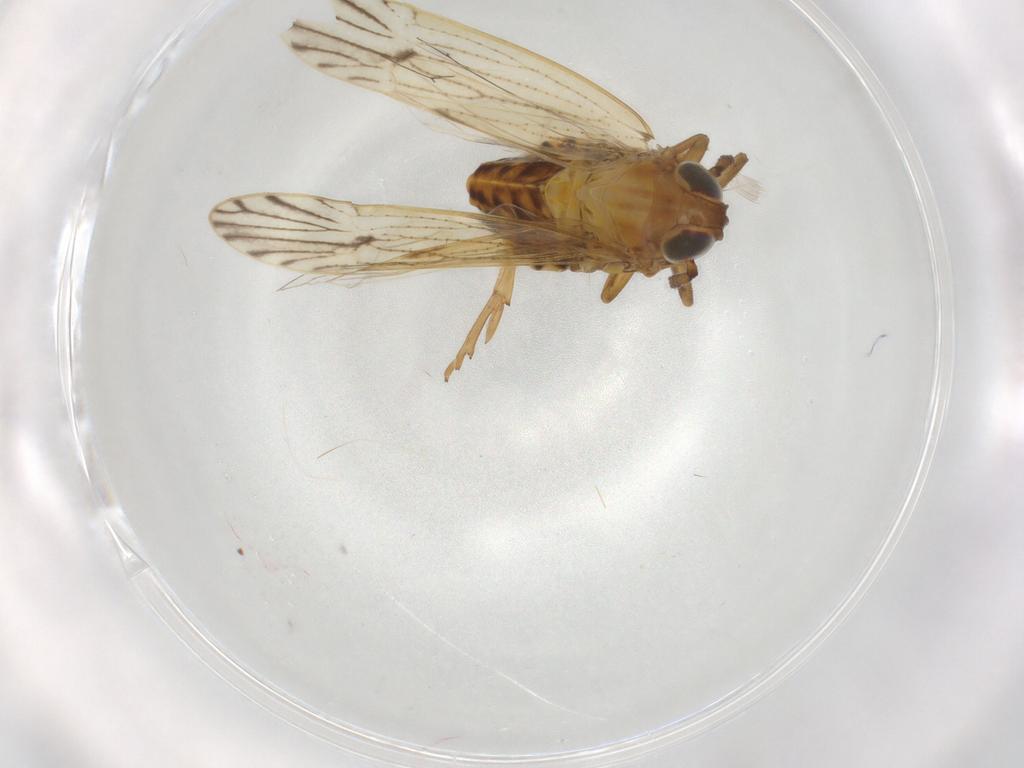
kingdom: Animalia
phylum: Arthropoda
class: Insecta
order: Hemiptera
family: Delphacidae
